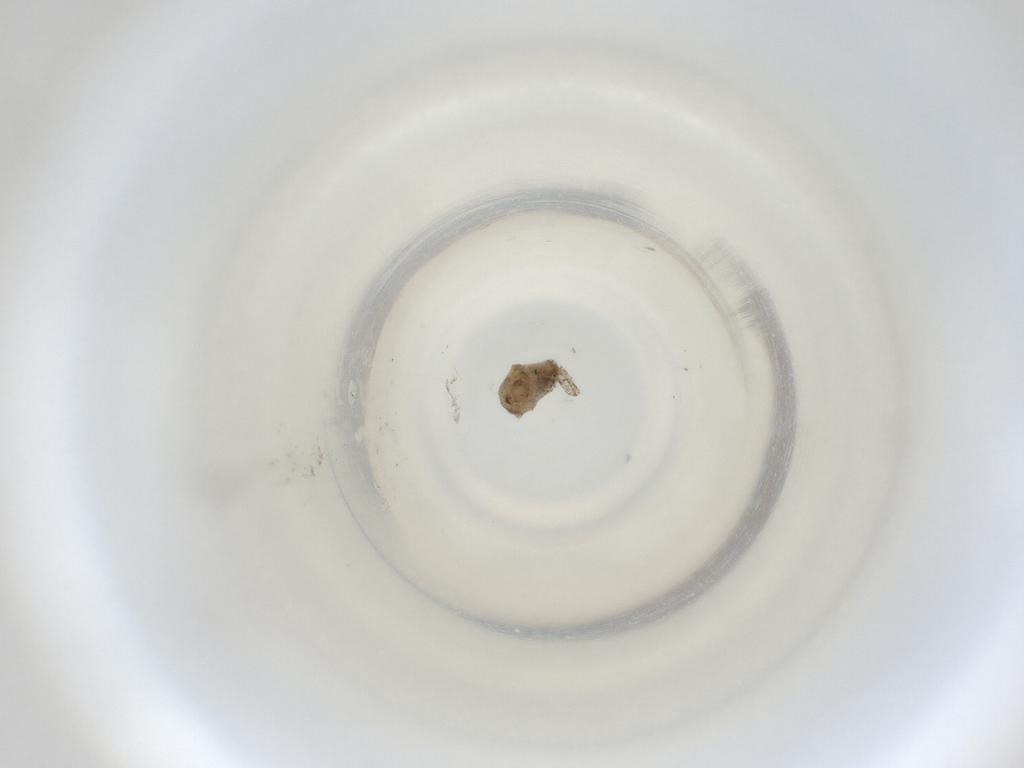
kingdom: Animalia
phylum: Arthropoda
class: Insecta
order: Diptera
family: Cecidomyiidae
